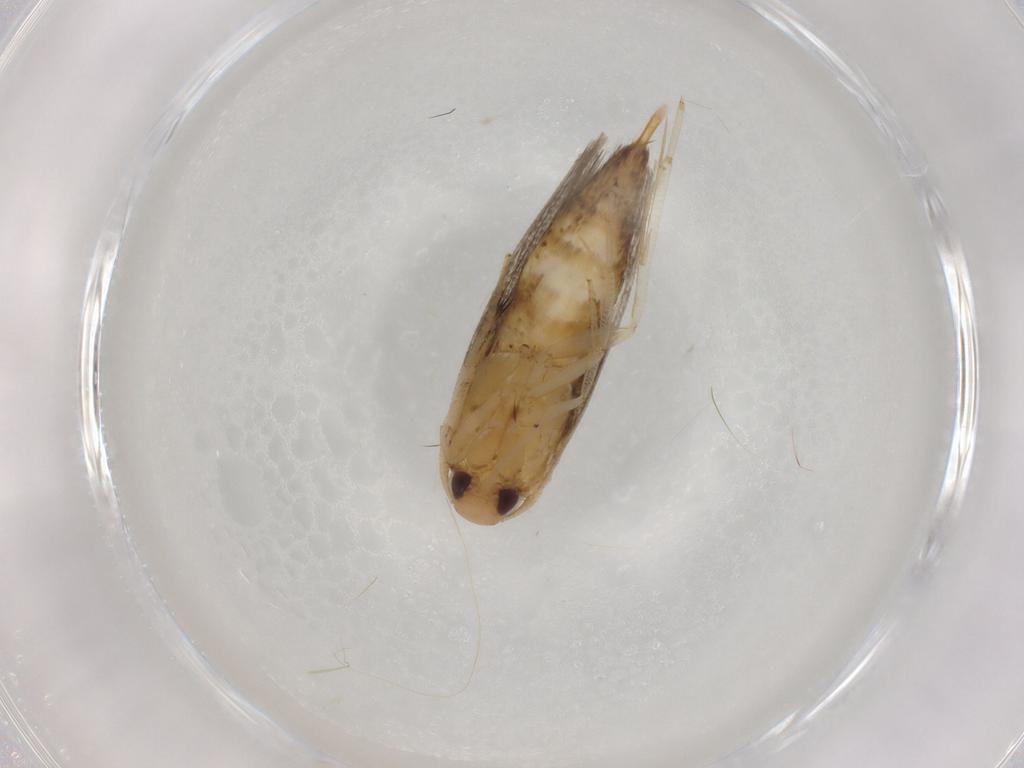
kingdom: Animalia
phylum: Arthropoda
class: Insecta
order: Lepidoptera
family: Cosmopterigidae
